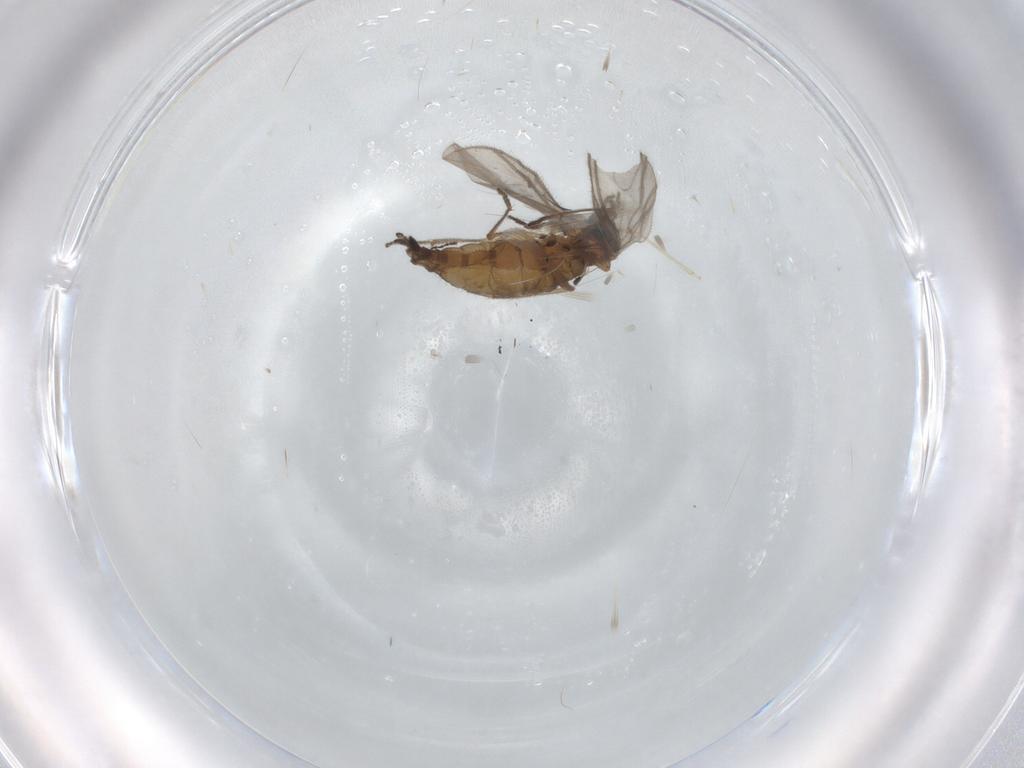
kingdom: Animalia
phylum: Arthropoda
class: Insecta
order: Diptera
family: Sciaridae
